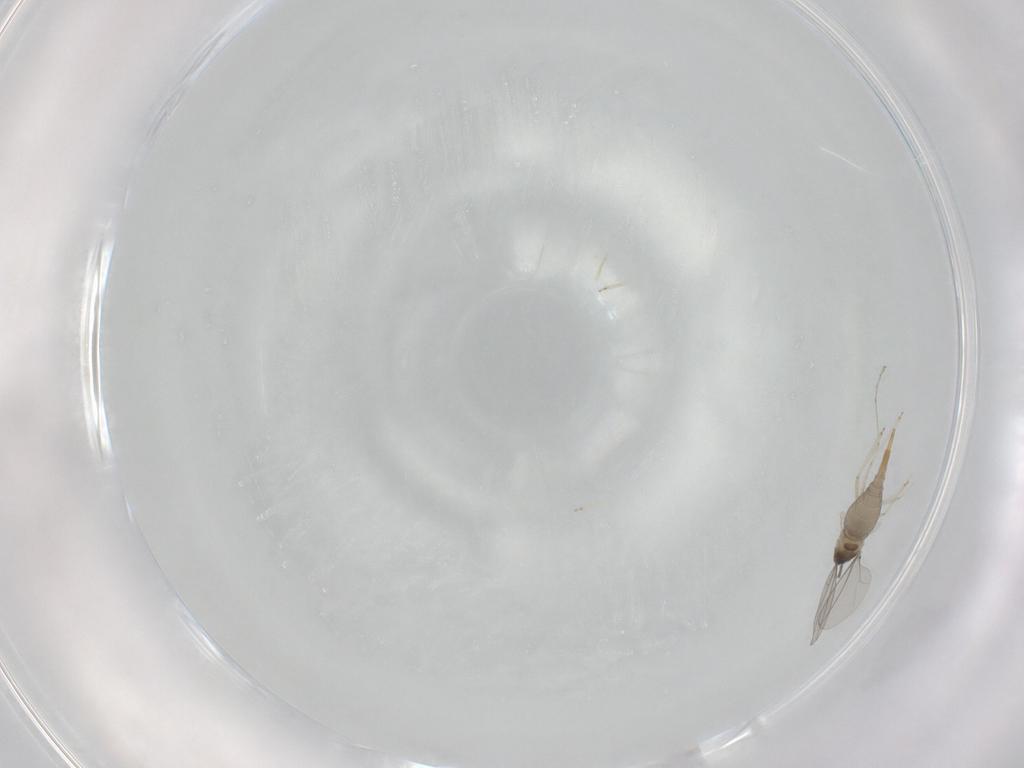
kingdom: Animalia
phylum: Arthropoda
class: Insecta
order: Diptera
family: Cecidomyiidae
